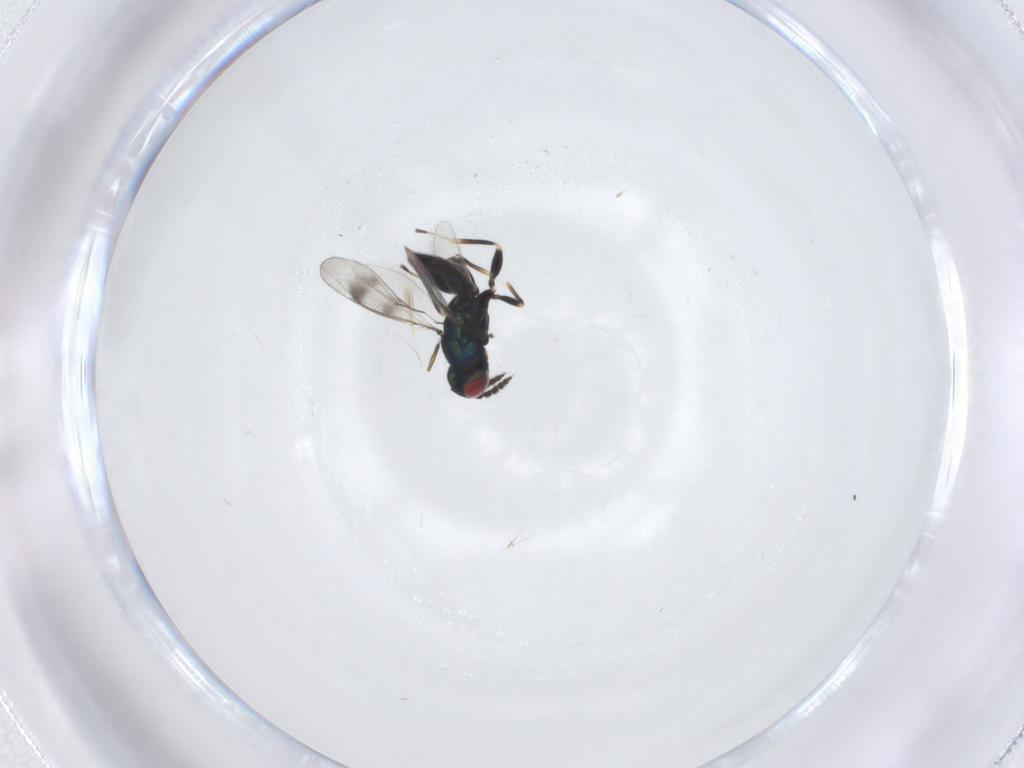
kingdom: Animalia
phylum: Arthropoda
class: Insecta
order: Hymenoptera
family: Eulophidae
